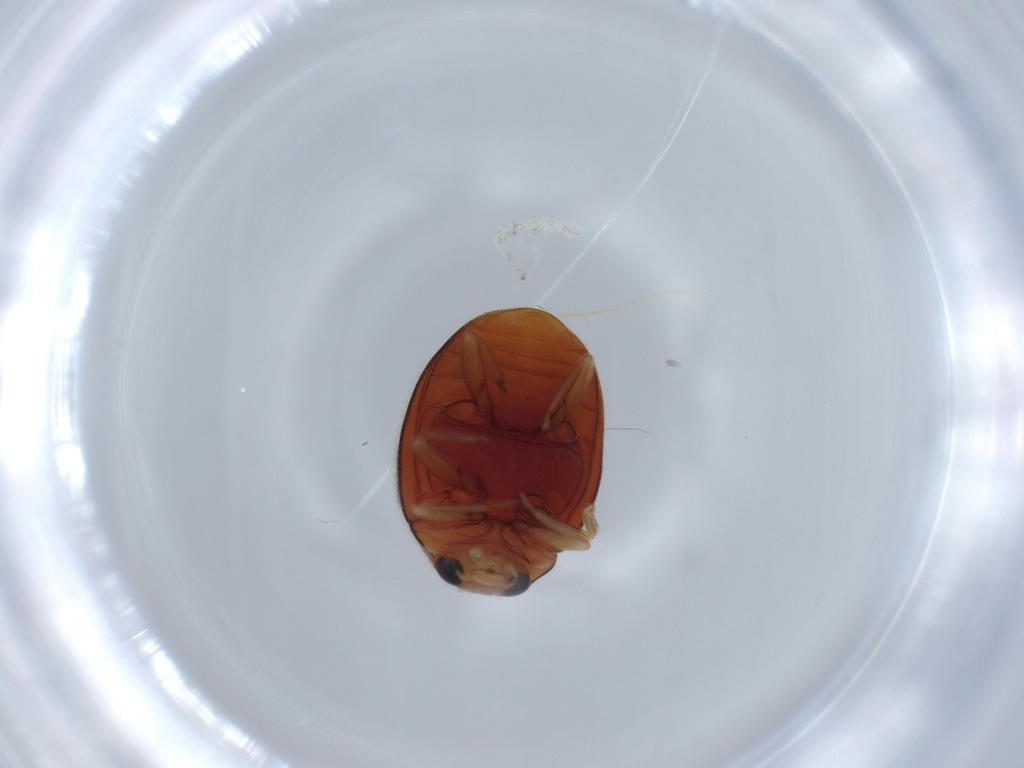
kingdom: Animalia
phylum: Arthropoda
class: Insecta
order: Coleoptera
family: Coccinellidae
